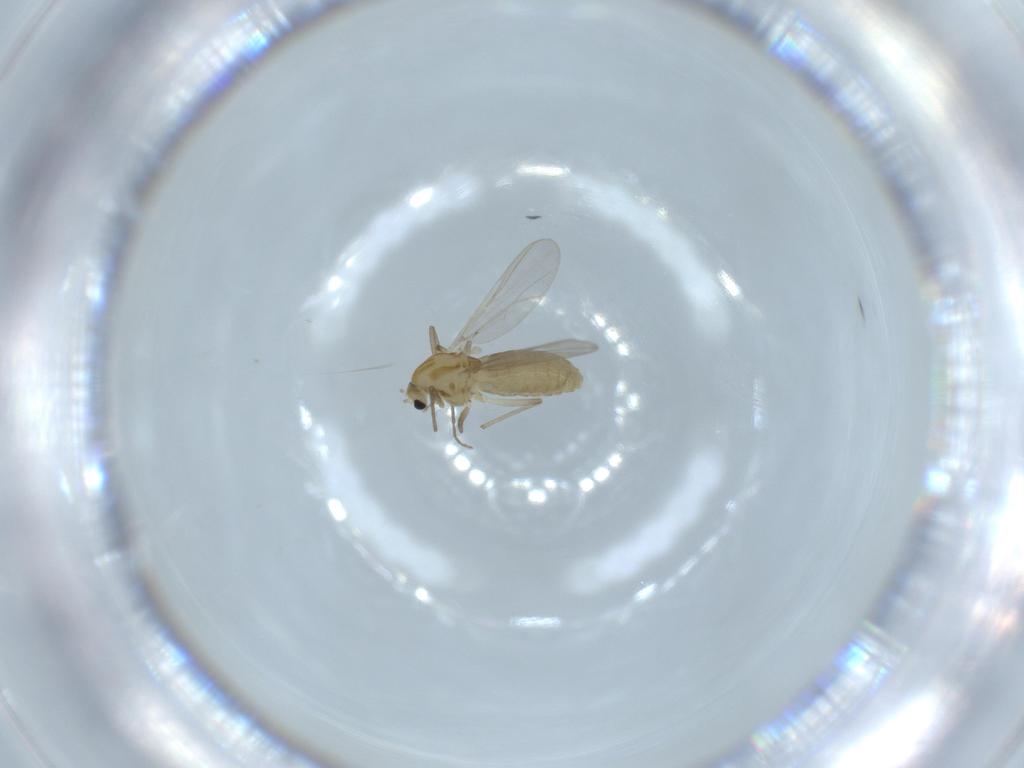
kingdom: Animalia
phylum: Arthropoda
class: Insecta
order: Diptera
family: Chironomidae
